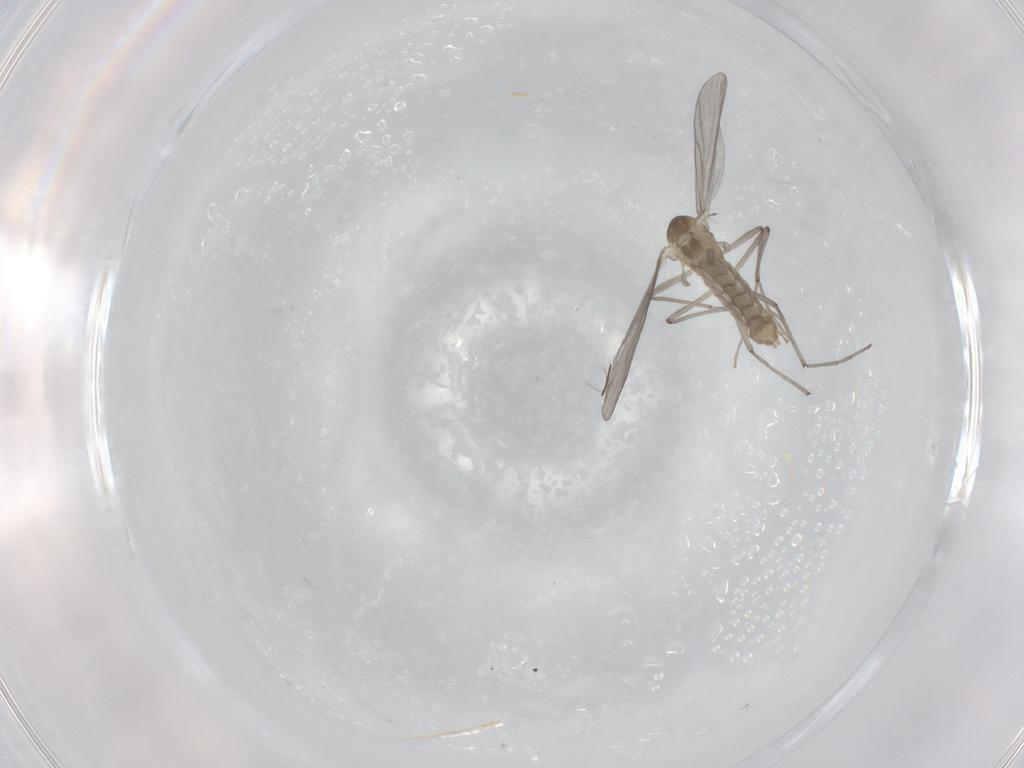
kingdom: Animalia
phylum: Arthropoda
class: Insecta
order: Diptera
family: Chironomidae
